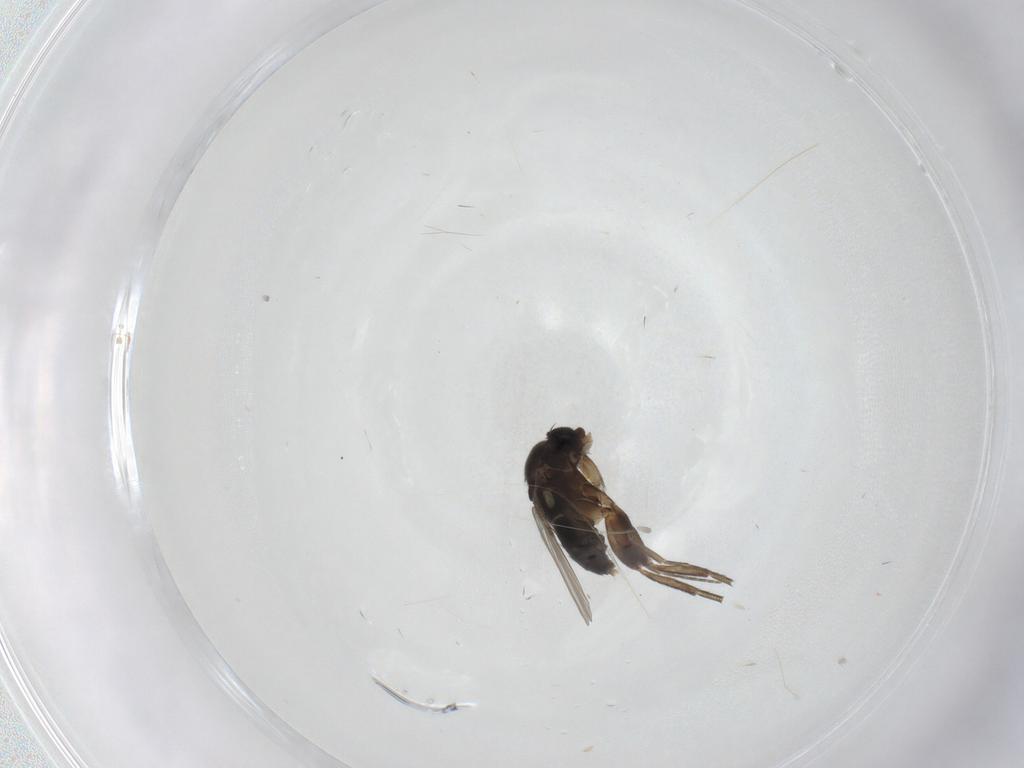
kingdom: Animalia
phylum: Arthropoda
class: Insecta
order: Diptera
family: Phoridae
